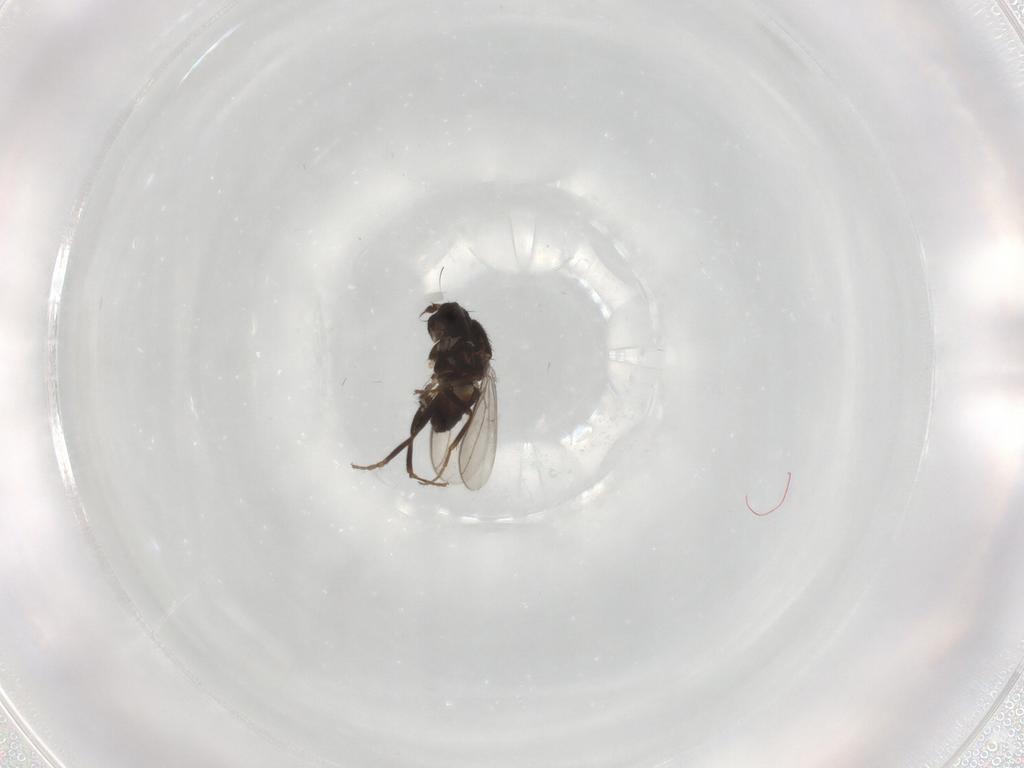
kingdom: Animalia
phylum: Arthropoda
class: Insecta
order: Diptera
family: Sphaeroceridae
